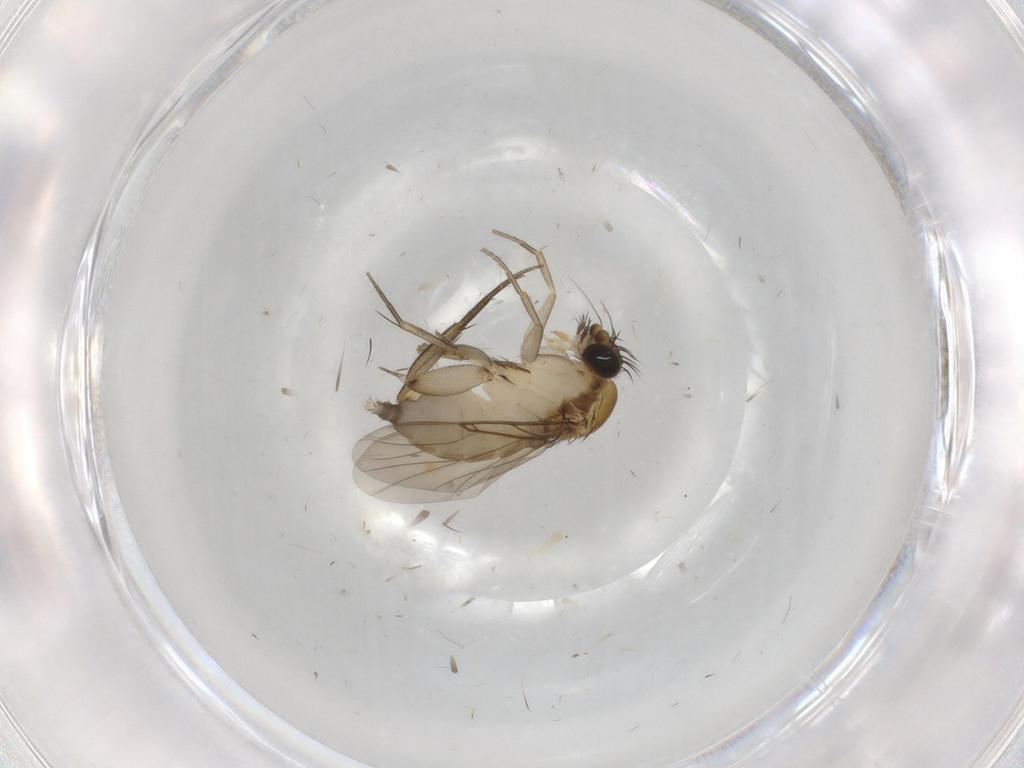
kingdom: Animalia
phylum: Arthropoda
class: Insecta
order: Diptera
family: Phoridae
